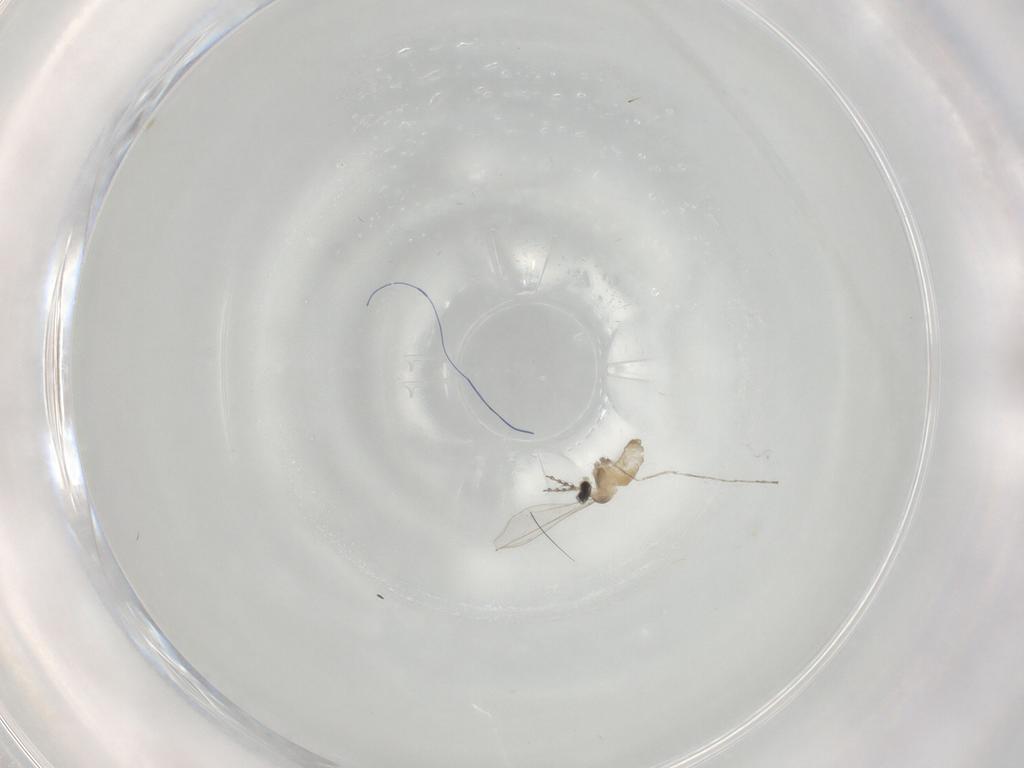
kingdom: Animalia
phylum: Arthropoda
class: Insecta
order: Diptera
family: Cecidomyiidae
